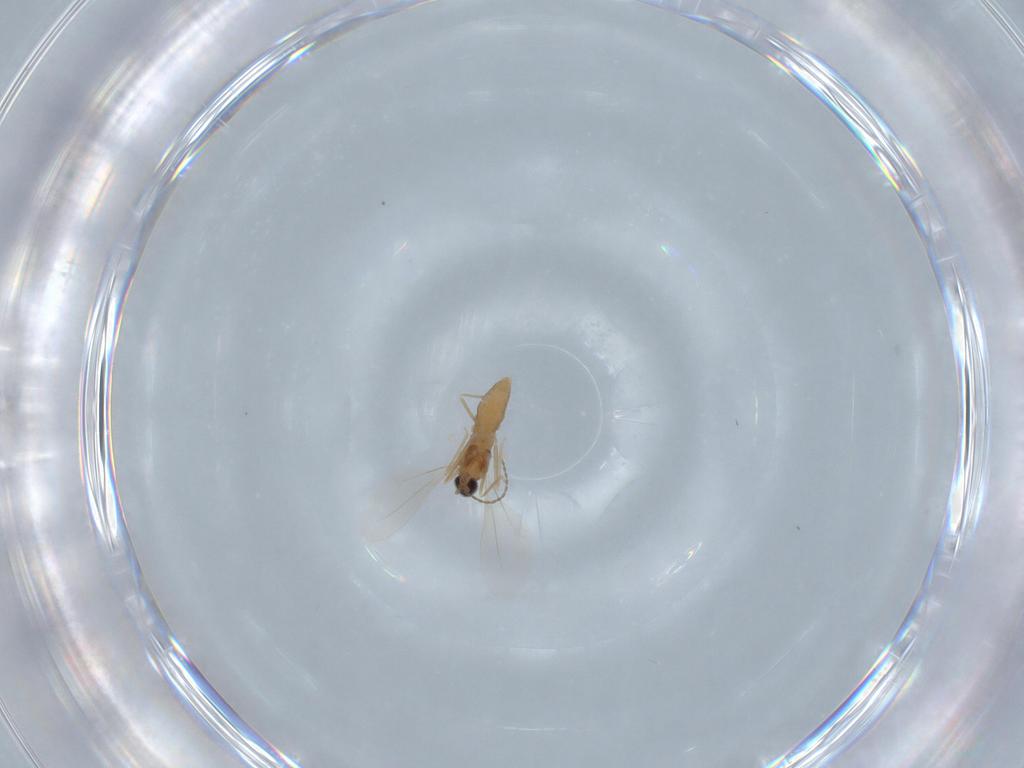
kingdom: Animalia
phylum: Arthropoda
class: Insecta
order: Diptera
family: Cecidomyiidae
